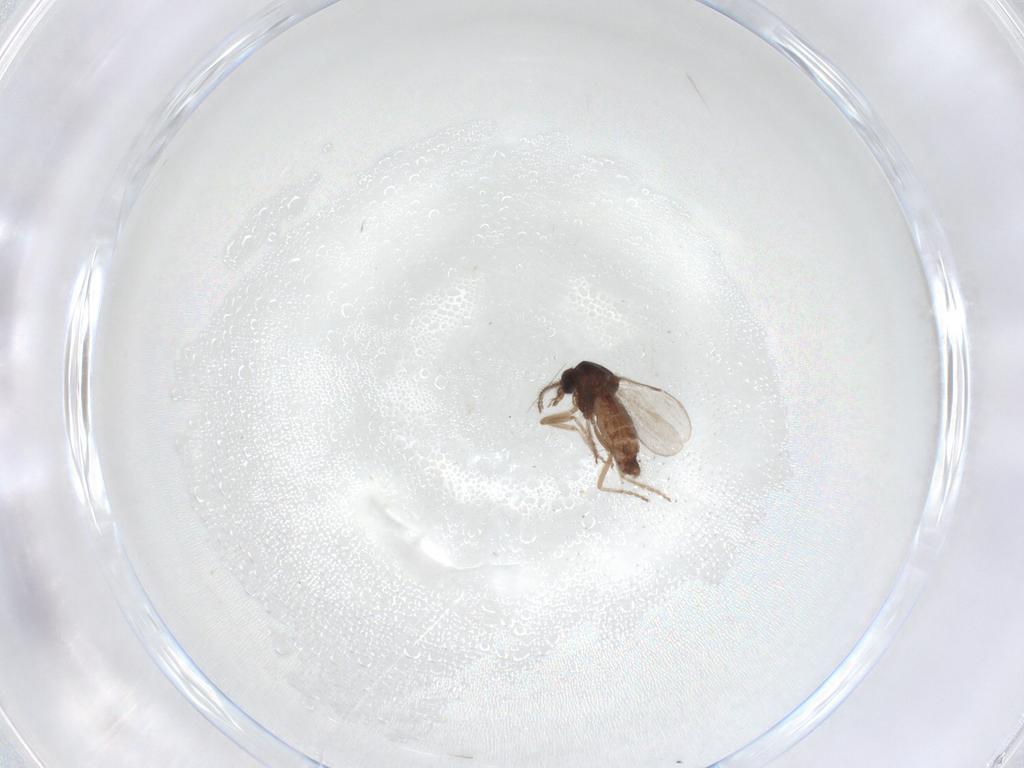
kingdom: Animalia
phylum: Arthropoda
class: Insecta
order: Diptera
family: Ceratopogonidae
